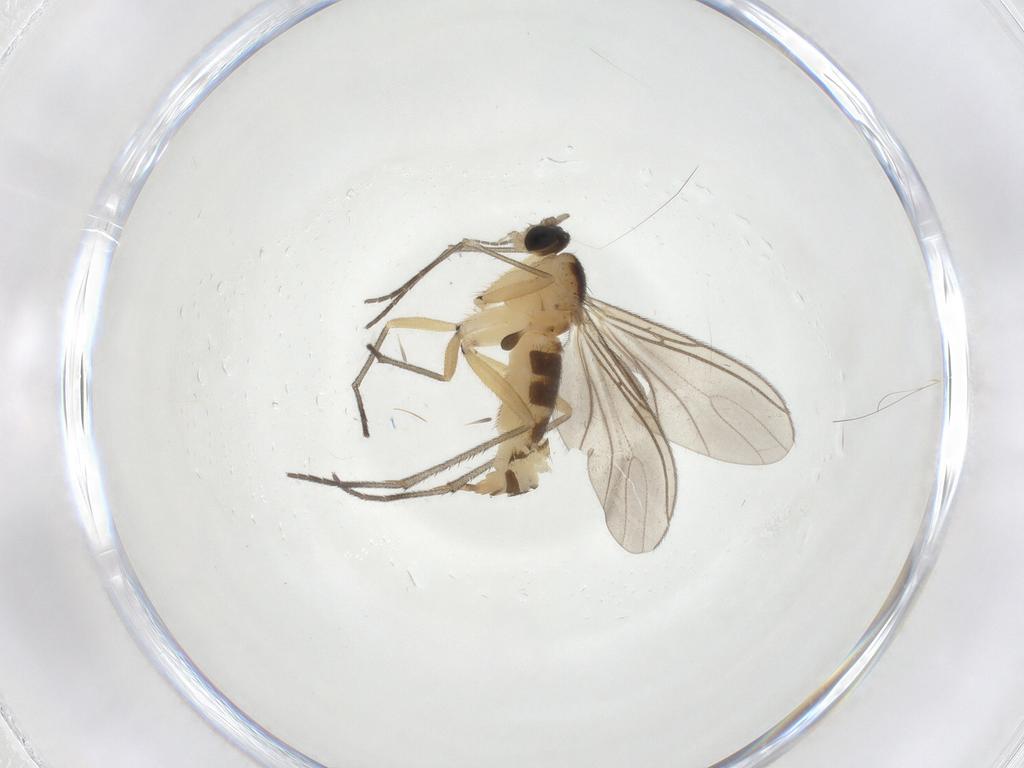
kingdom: Animalia
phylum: Arthropoda
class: Insecta
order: Diptera
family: Sciaridae
